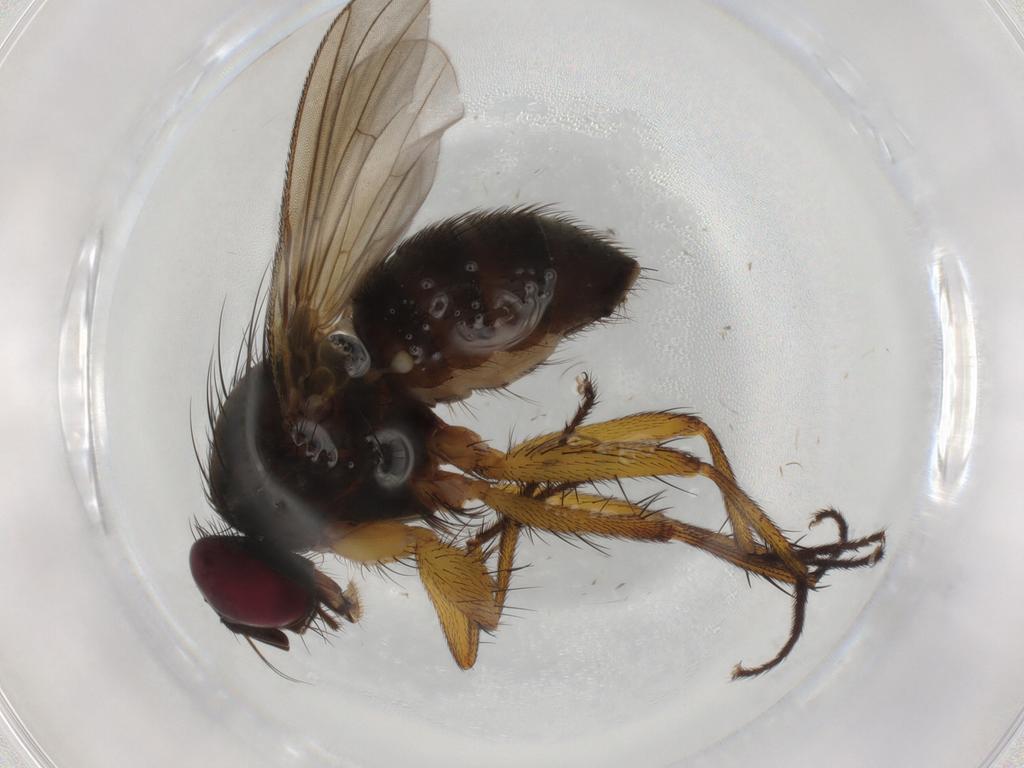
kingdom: Animalia
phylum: Arthropoda
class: Insecta
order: Diptera
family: Muscidae
